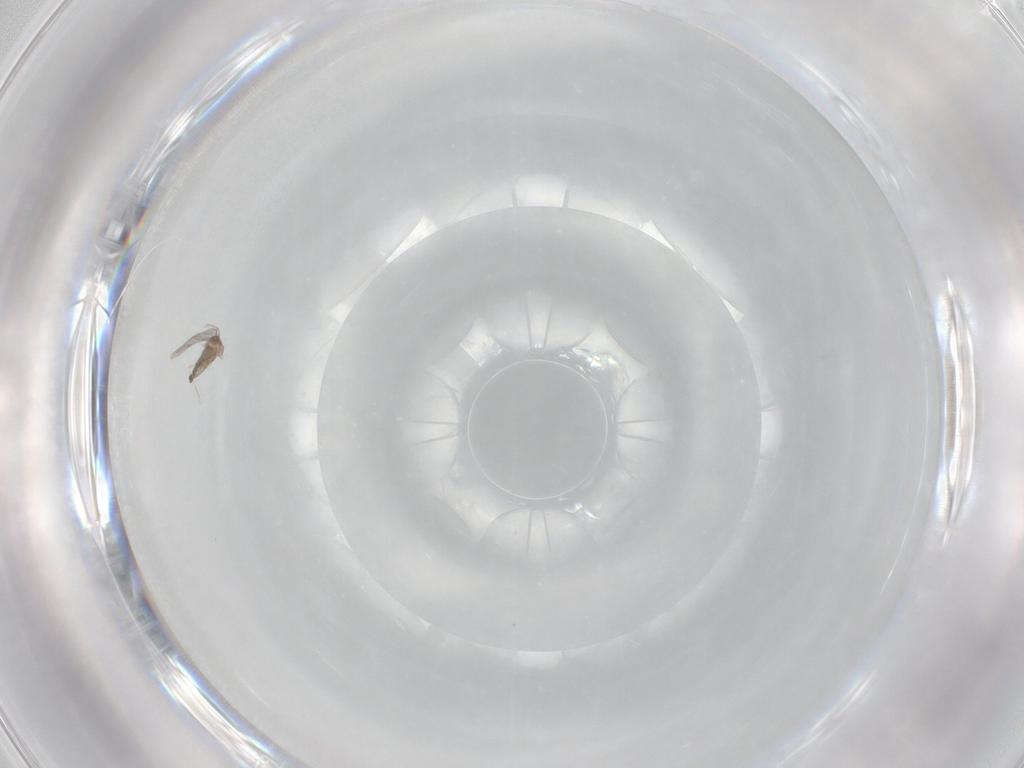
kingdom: Animalia
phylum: Arthropoda
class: Insecta
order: Diptera
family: Cecidomyiidae
